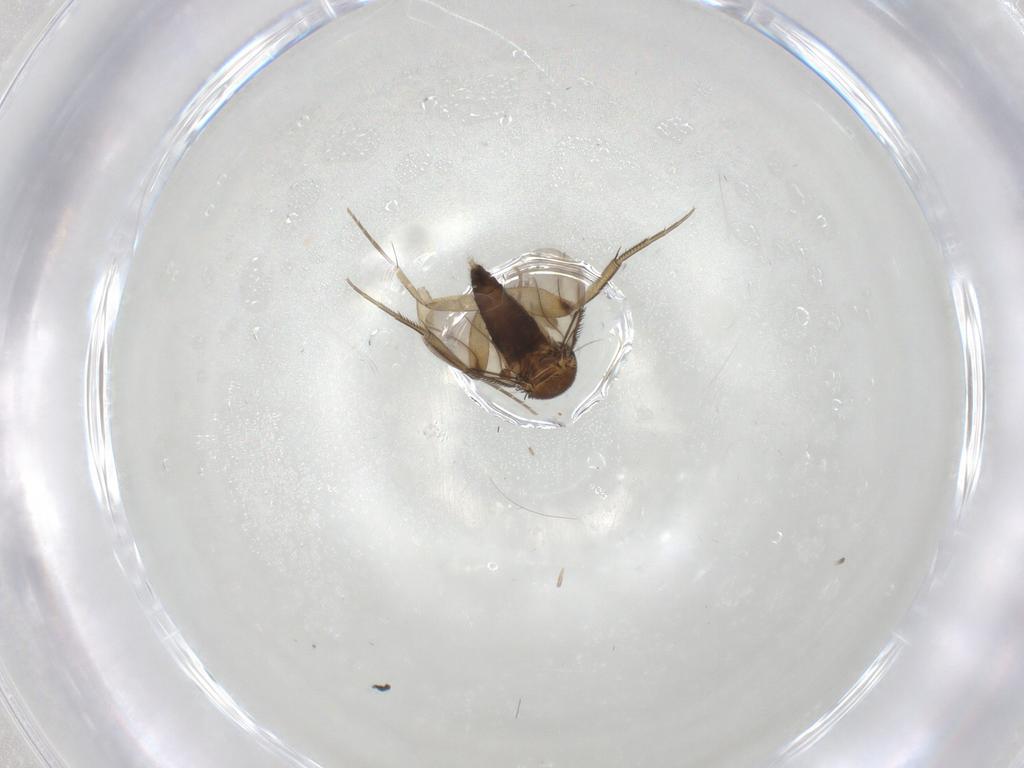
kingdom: Animalia
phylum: Arthropoda
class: Insecta
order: Diptera
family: Phoridae
